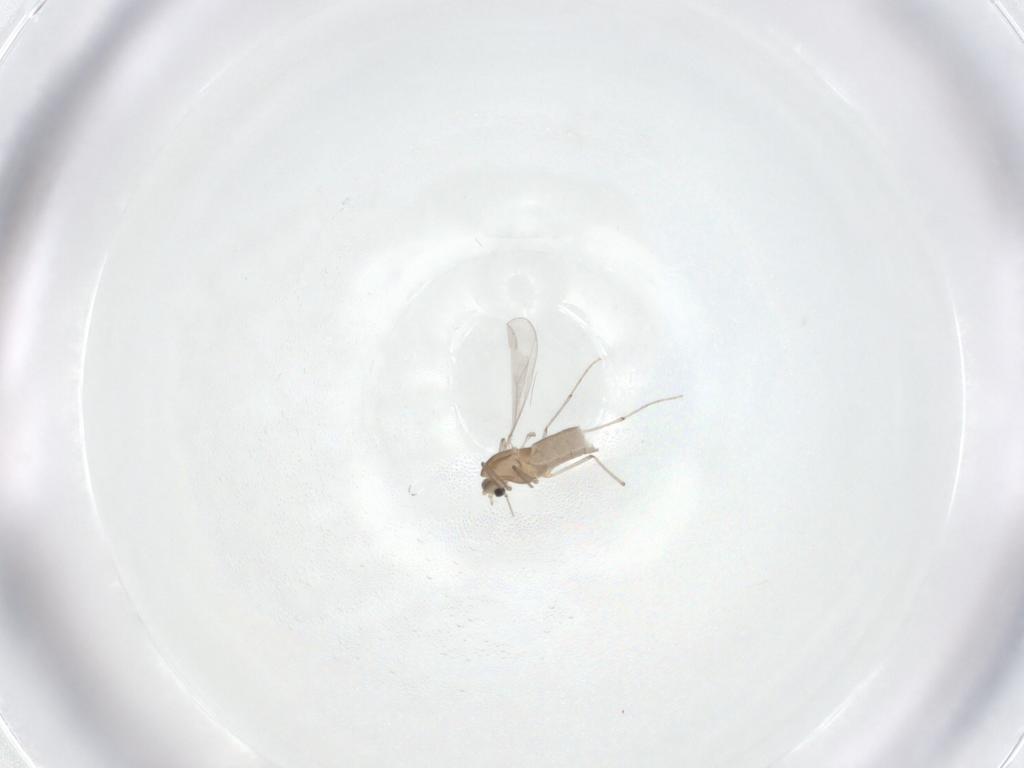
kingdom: Animalia
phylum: Arthropoda
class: Insecta
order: Diptera
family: Chironomidae
